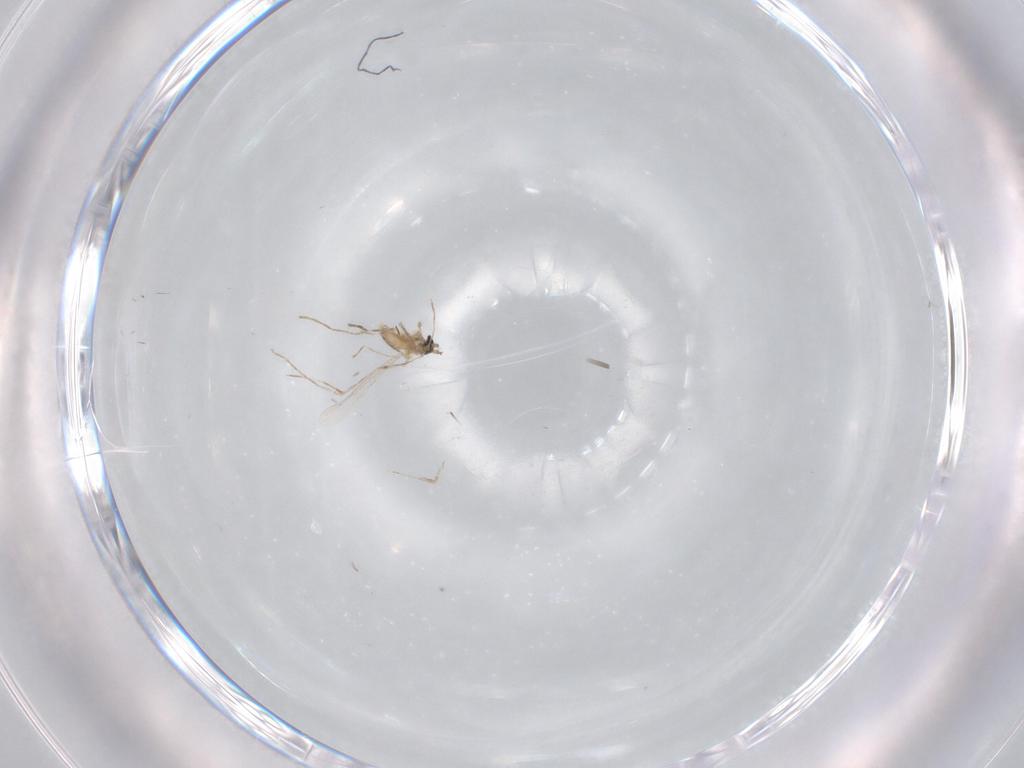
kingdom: Animalia
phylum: Arthropoda
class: Insecta
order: Diptera
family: Cecidomyiidae
